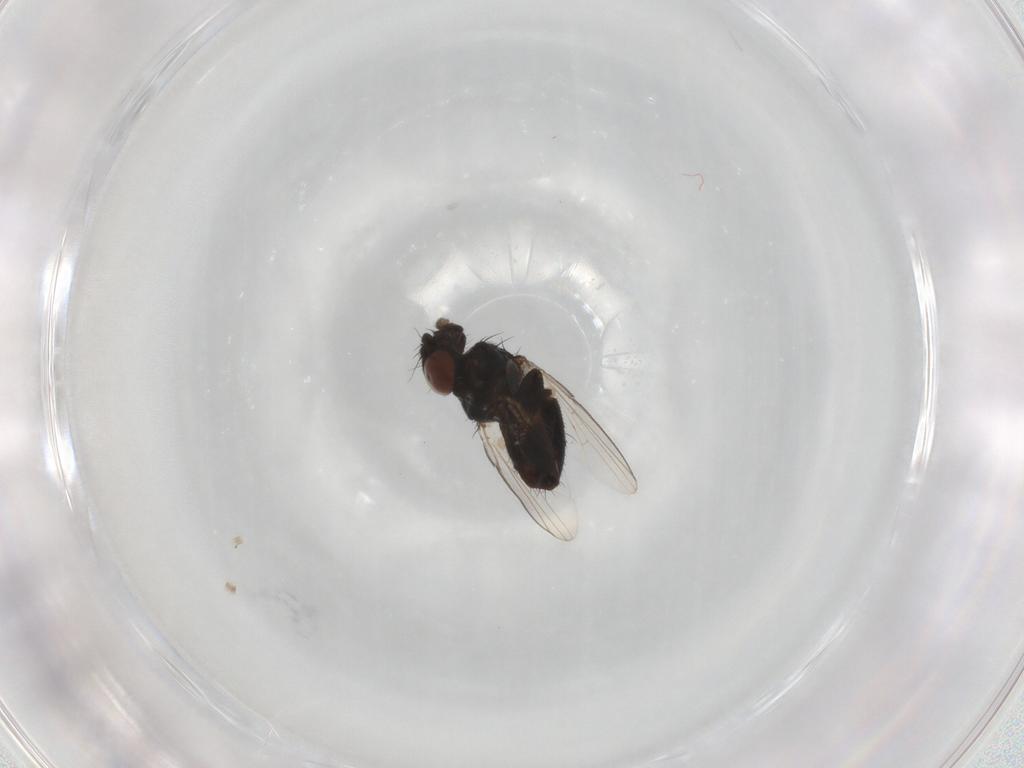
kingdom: Animalia
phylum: Arthropoda
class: Insecta
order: Diptera
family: Milichiidae
